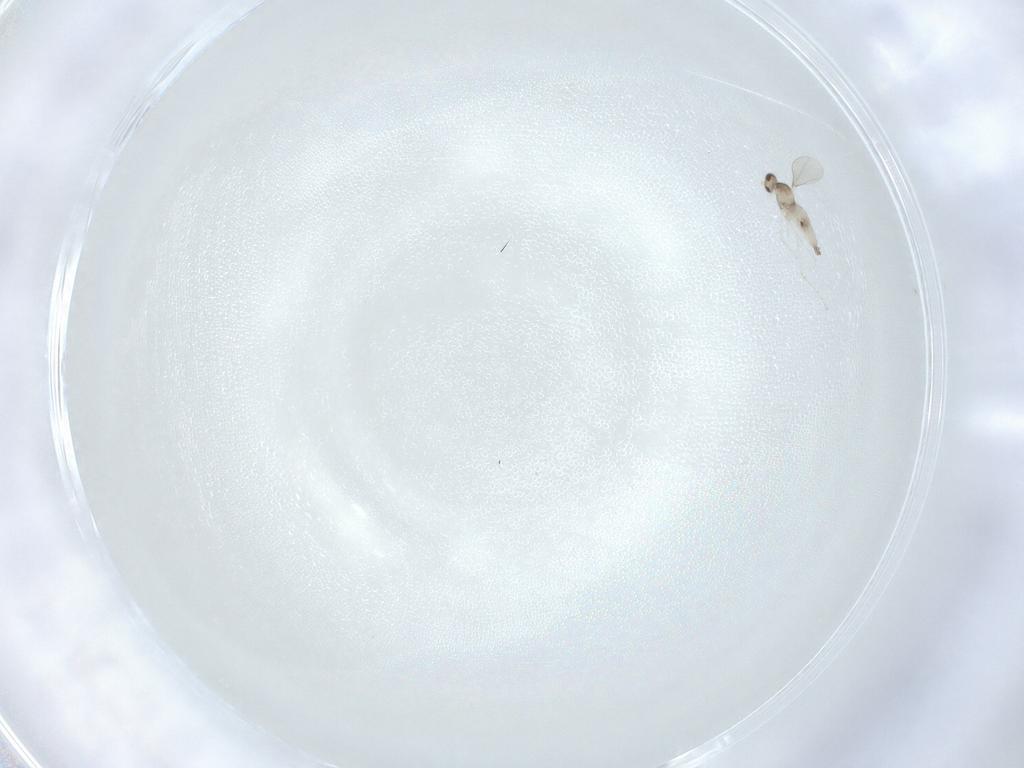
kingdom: Animalia
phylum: Arthropoda
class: Insecta
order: Diptera
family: Cecidomyiidae
